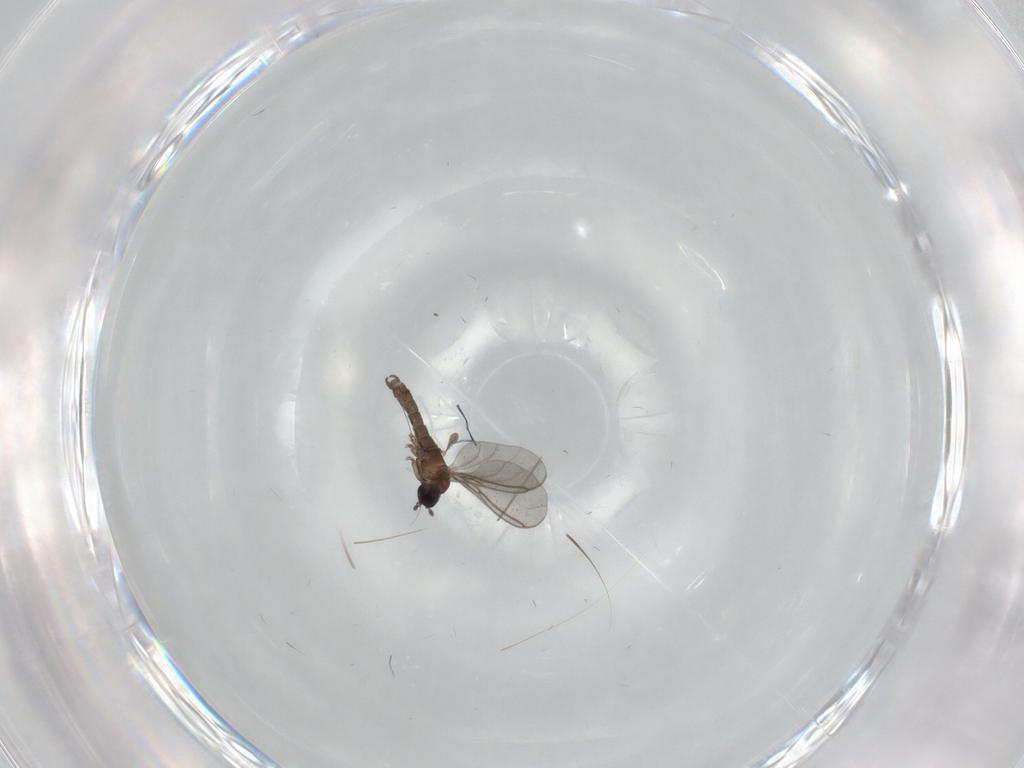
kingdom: Animalia
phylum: Arthropoda
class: Insecta
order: Diptera
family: Sciaridae
